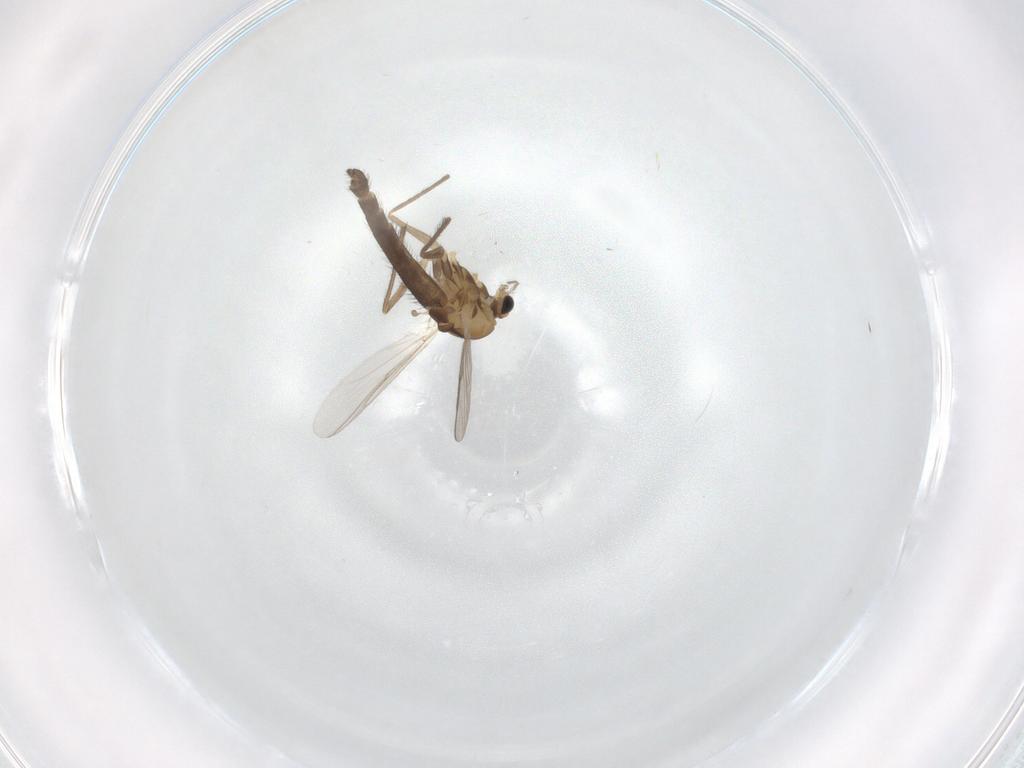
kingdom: Animalia
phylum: Arthropoda
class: Insecta
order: Diptera
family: Chironomidae
